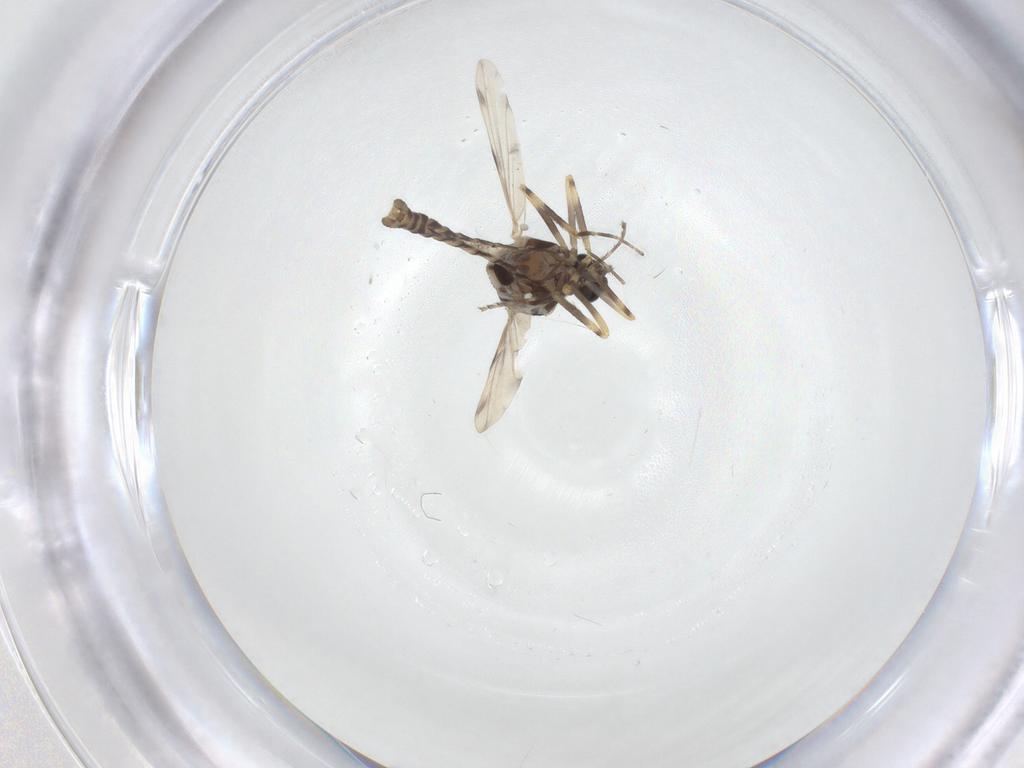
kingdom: Animalia
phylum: Arthropoda
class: Insecta
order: Diptera
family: Ceratopogonidae
